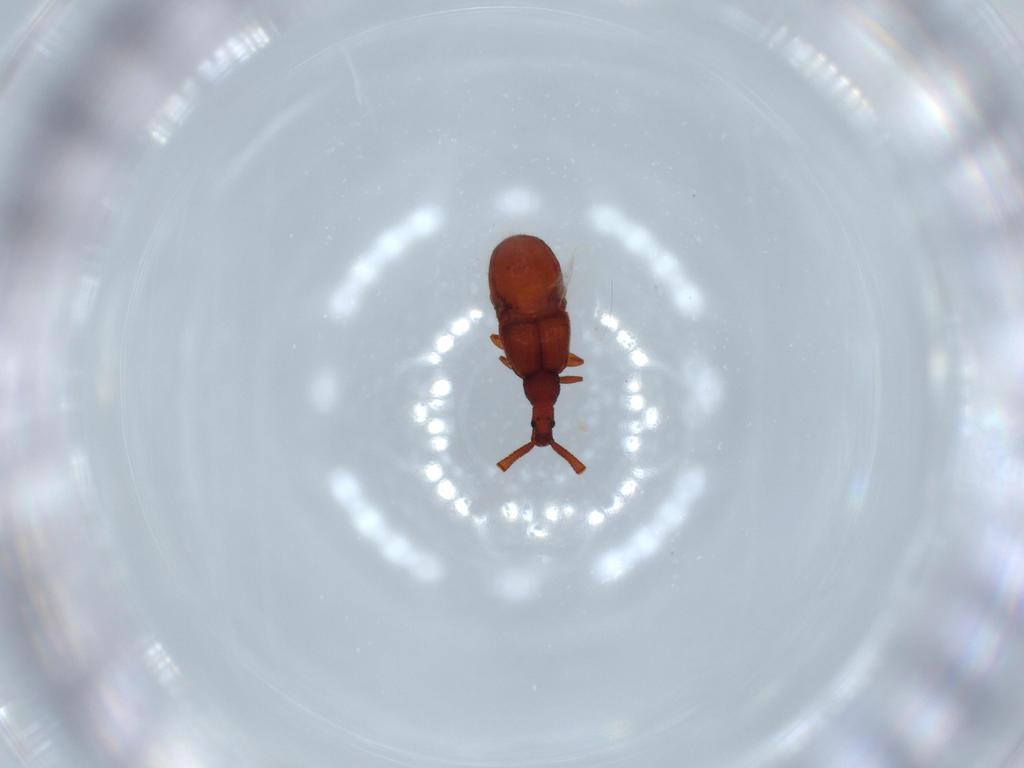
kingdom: Animalia
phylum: Arthropoda
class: Insecta
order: Coleoptera
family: Staphylinidae
